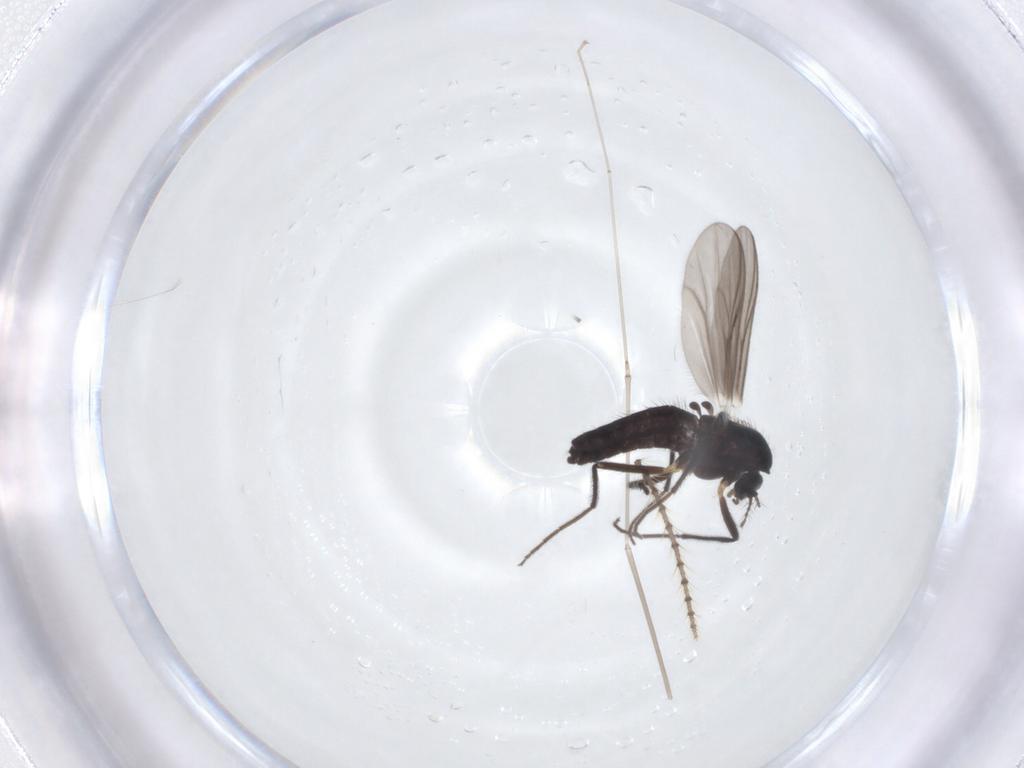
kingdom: Animalia
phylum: Arthropoda
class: Insecta
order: Diptera
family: Chironomidae
